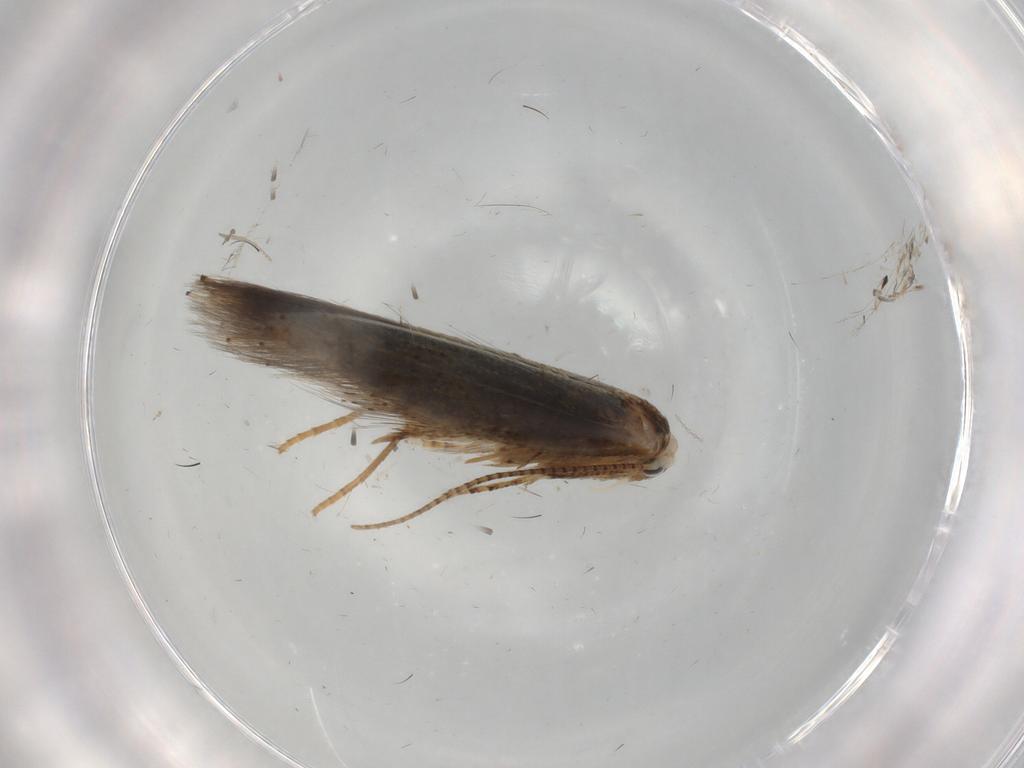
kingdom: Animalia
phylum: Arthropoda
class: Insecta
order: Lepidoptera
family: Bucculatricidae
